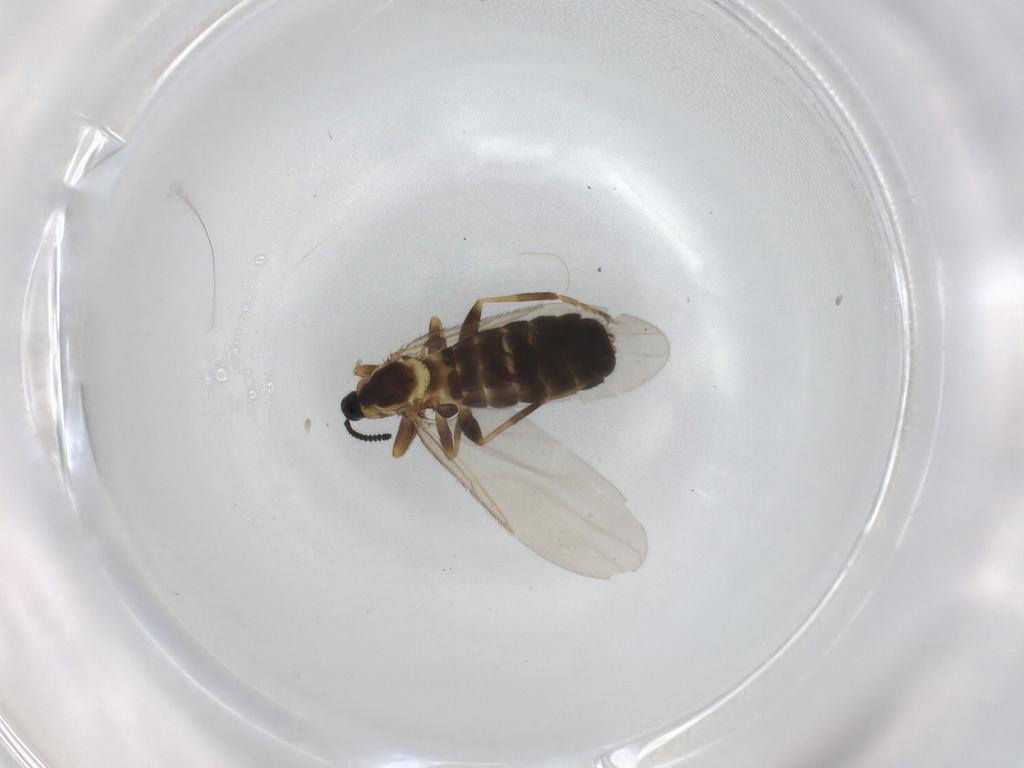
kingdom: Animalia
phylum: Arthropoda
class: Insecta
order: Diptera
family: Scatopsidae
